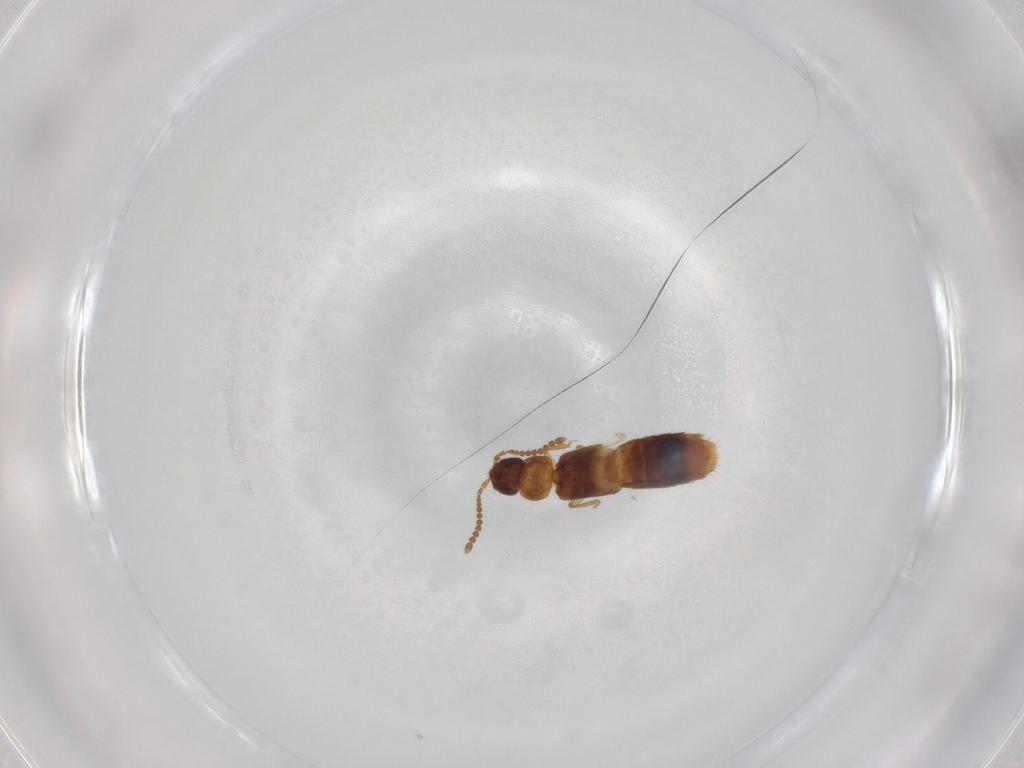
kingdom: Animalia
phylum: Arthropoda
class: Insecta
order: Coleoptera
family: Staphylinidae
